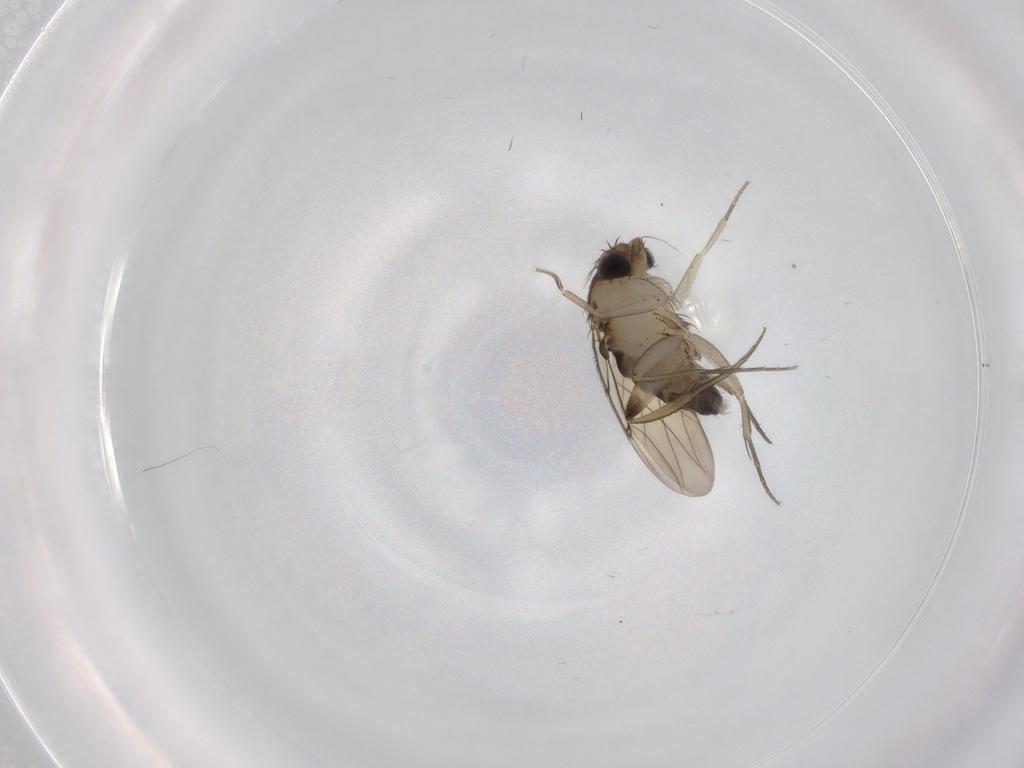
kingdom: Animalia
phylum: Arthropoda
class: Insecta
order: Diptera
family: Phoridae
